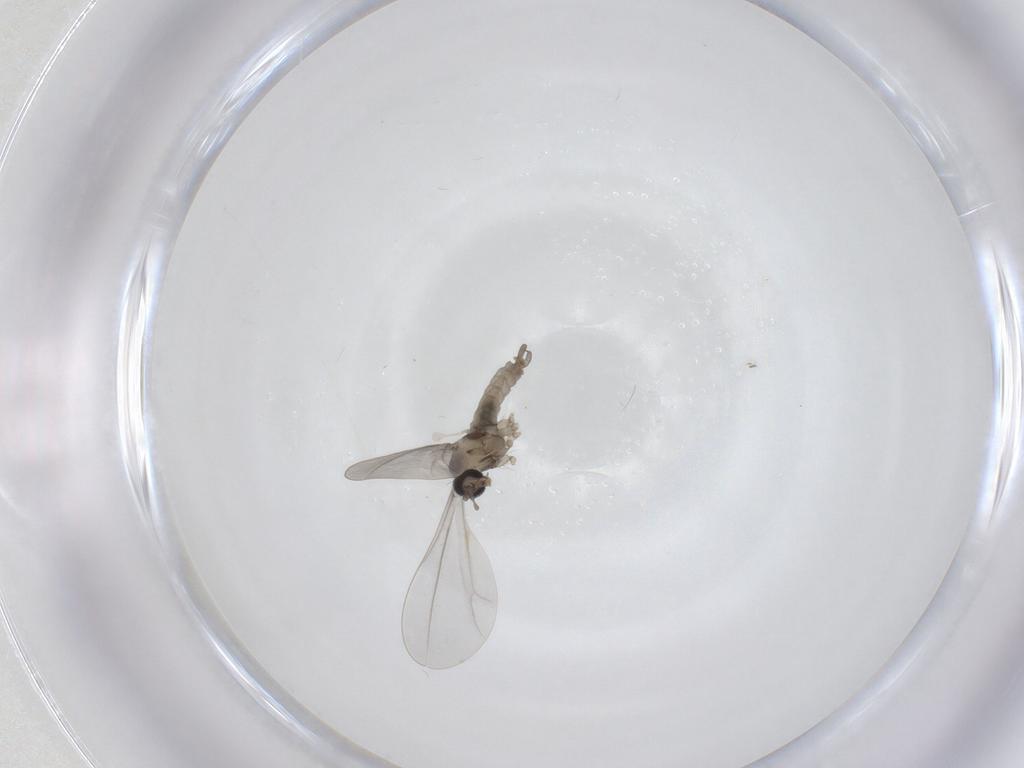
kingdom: Animalia
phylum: Arthropoda
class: Insecta
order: Diptera
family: Cecidomyiidae
